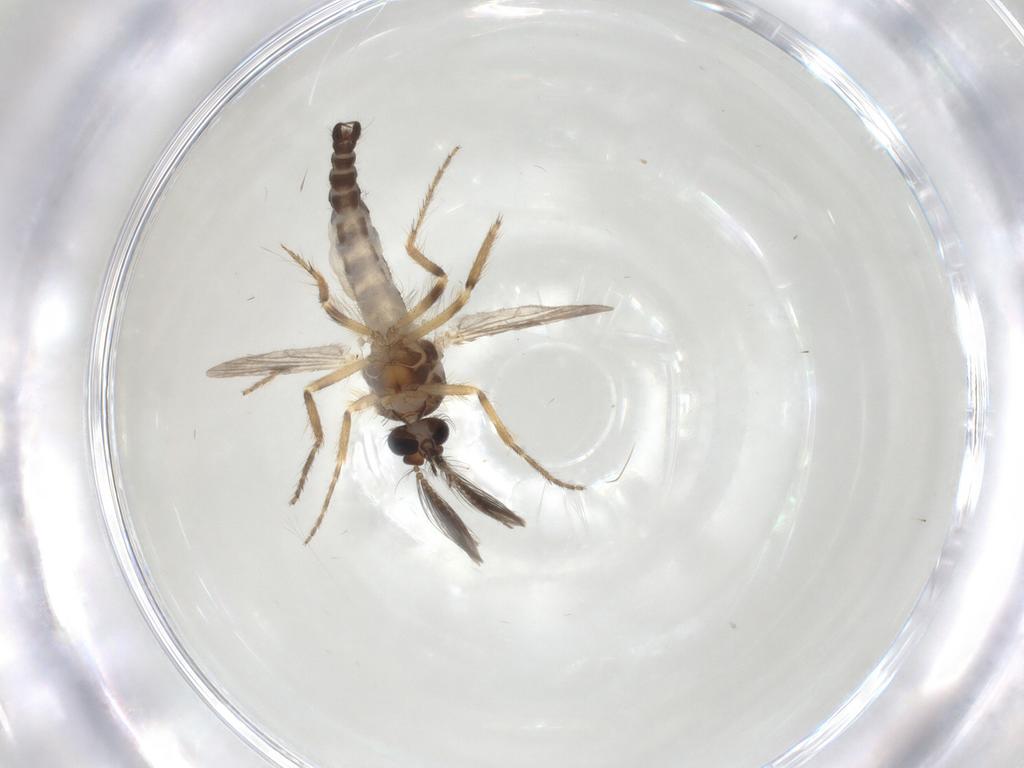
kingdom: Animalia
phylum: Arthropoda
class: Insecta
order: Diptera
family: Ceratopogonidae
